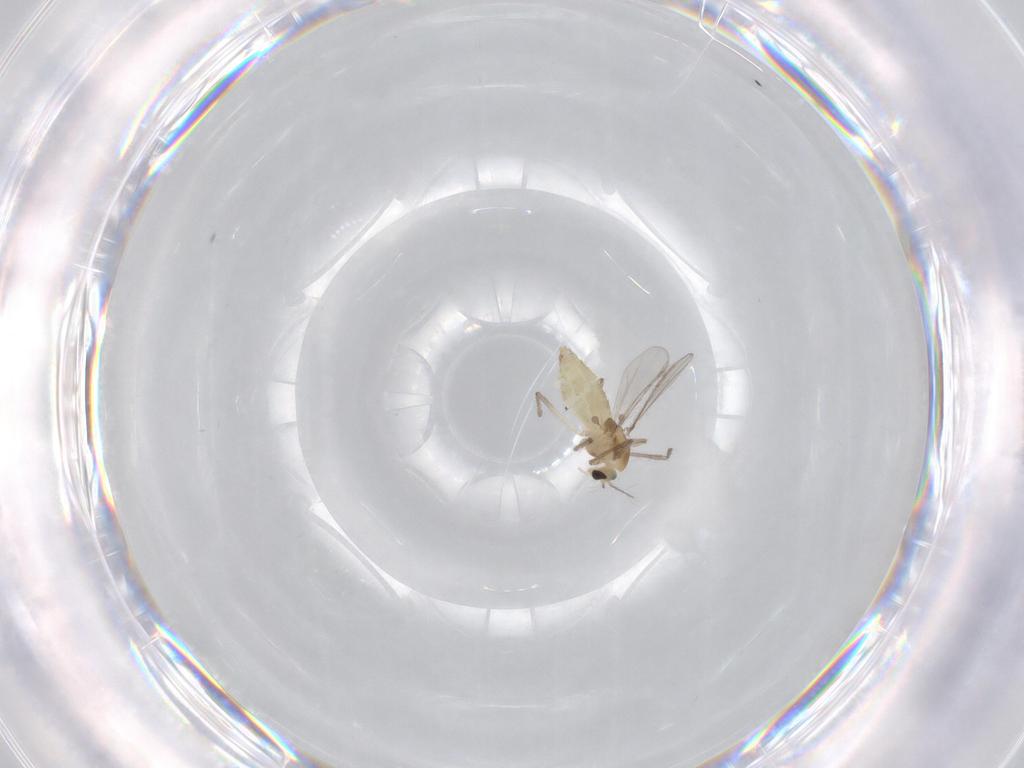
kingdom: Animalia
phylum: Arthropoda
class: Insecta
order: Diptera
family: Chironomidae
